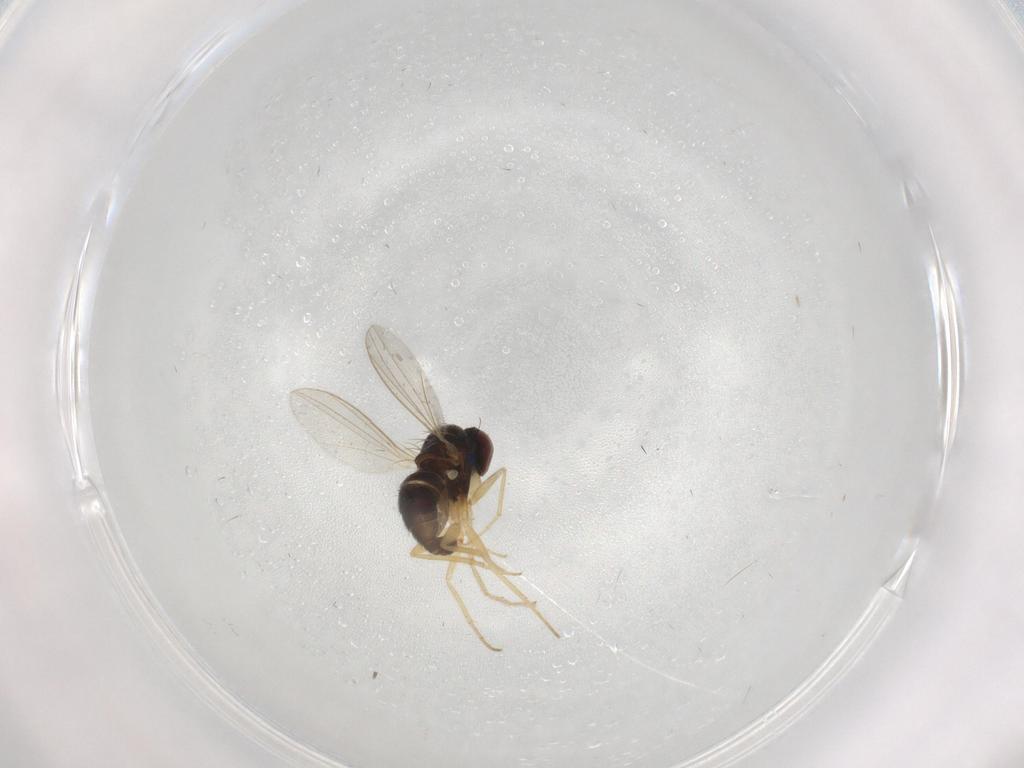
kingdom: Animalia
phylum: Arthropoda
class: Insecta
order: Diptera
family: Dolichopodidae
